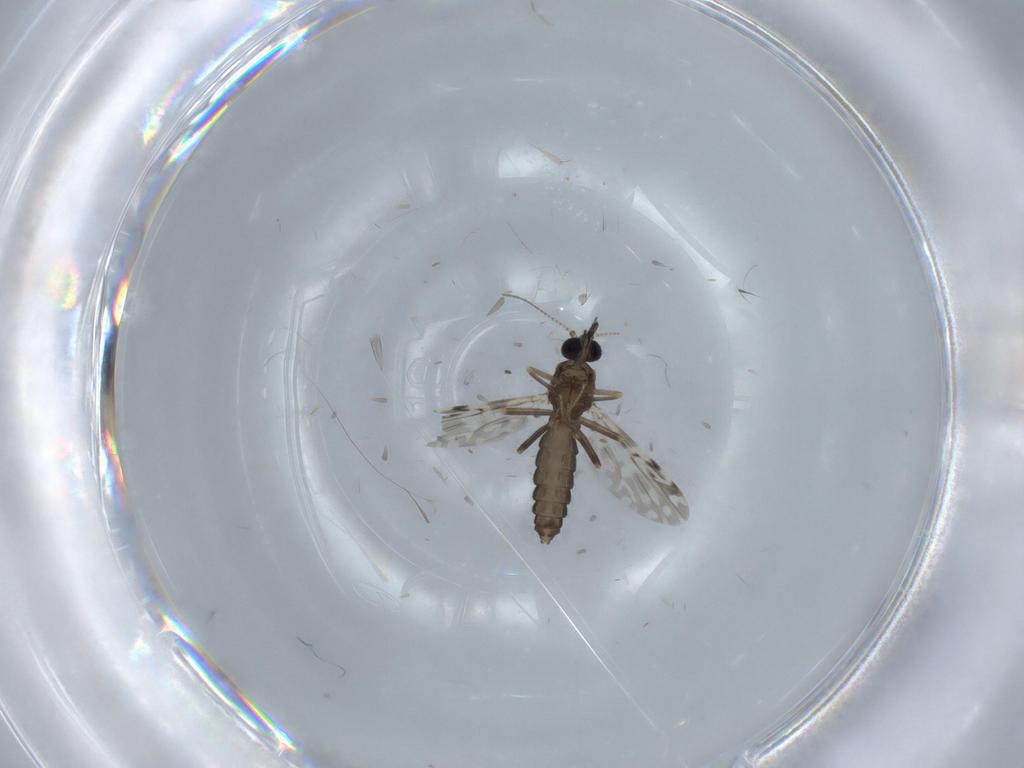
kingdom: Animalia
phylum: Arthropoda
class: Insecta
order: Diptera
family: Ceratopogonidae
